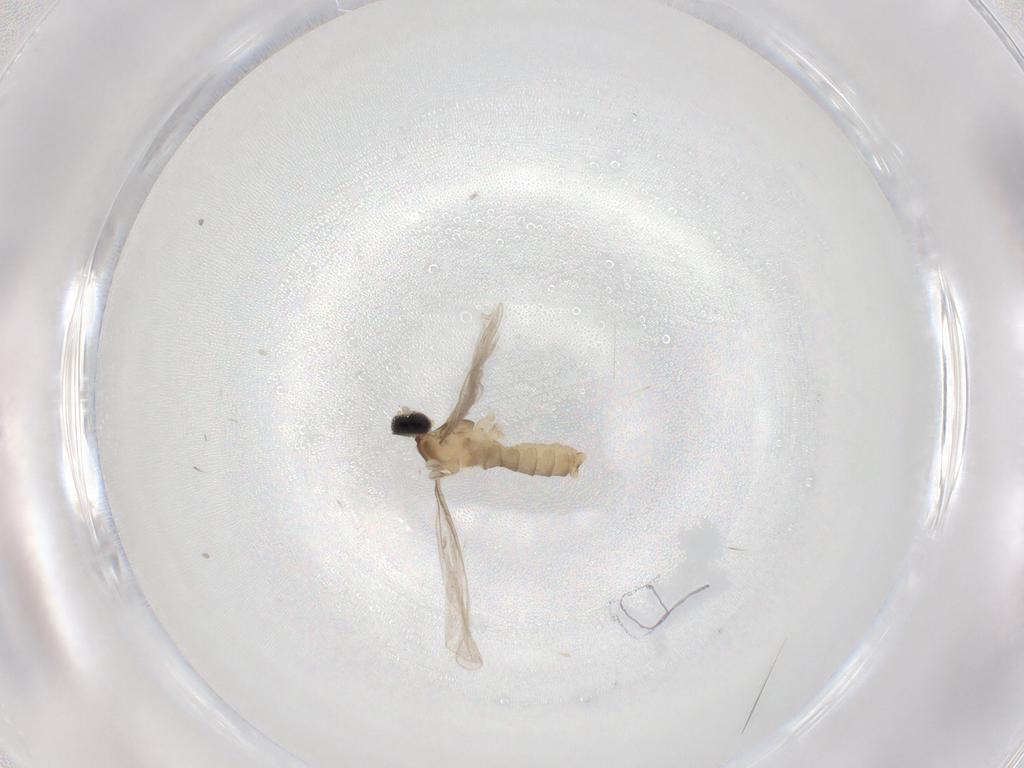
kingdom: Animalia
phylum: Arthropoda
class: Insecta
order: Diptera
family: Cecidomyiidae
